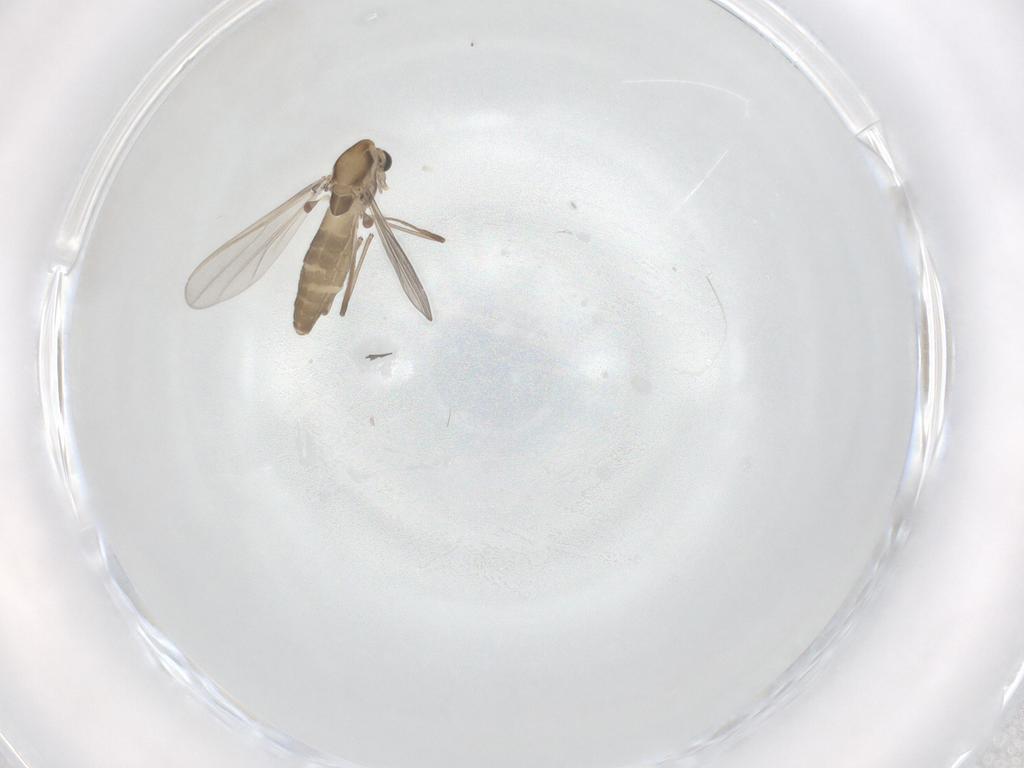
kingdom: Animalia
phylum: Arthropoda
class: Insecta
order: Diptera
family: Chironomidae
